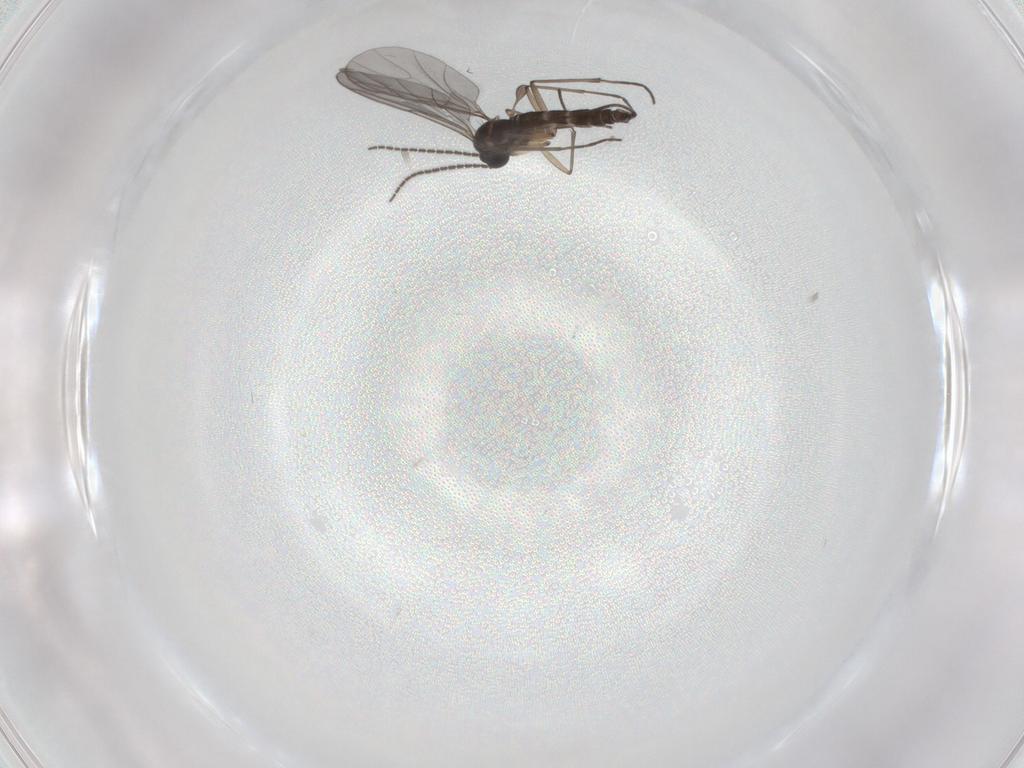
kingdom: Animalia
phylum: Arthropoda
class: Insecta
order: Diptera
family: Sciaridae
